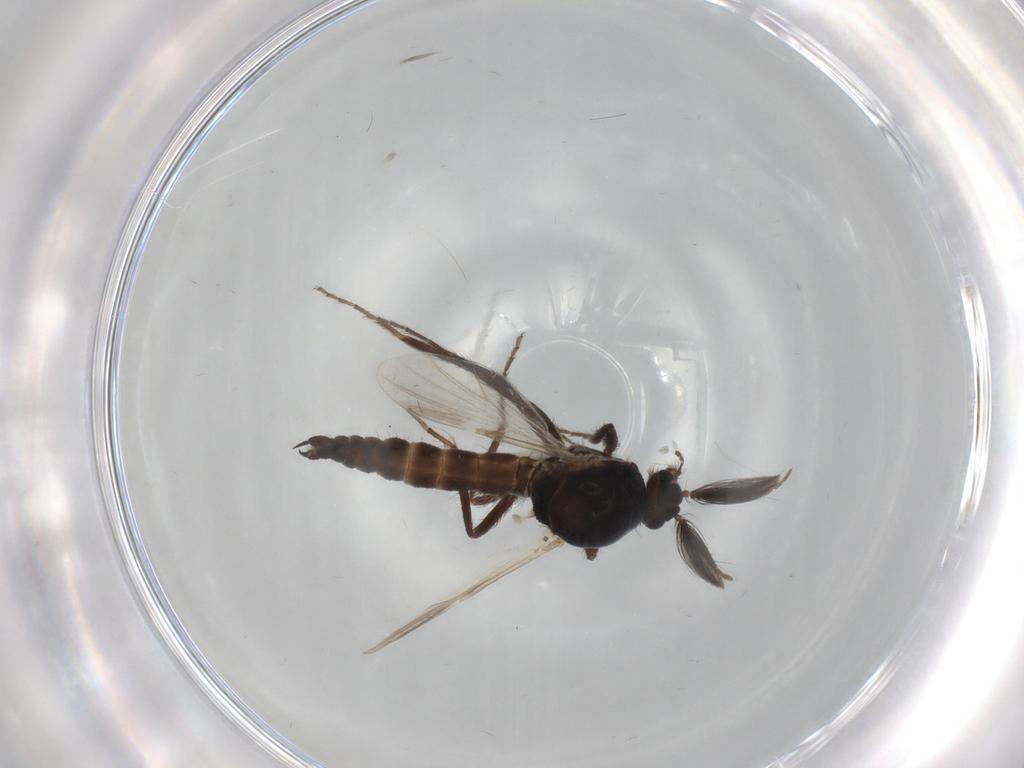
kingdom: Animalia
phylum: Arthropoda
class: Insecta
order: Diptera
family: Ceratopogonidae
